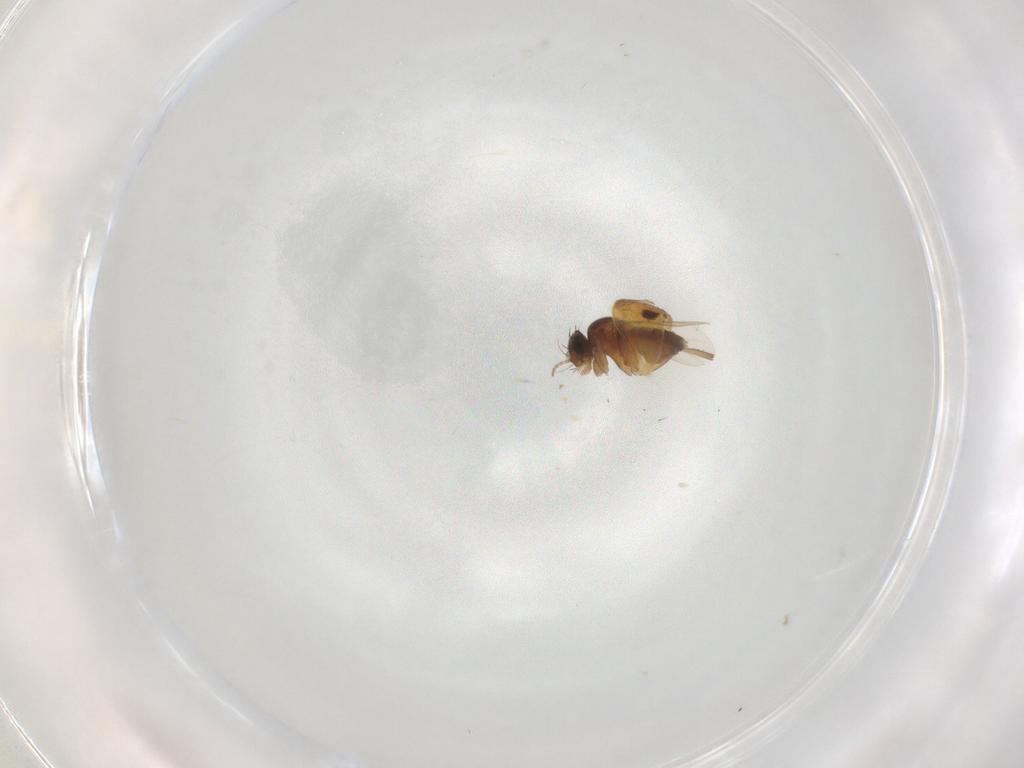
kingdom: Animalia
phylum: Arthropoda
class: Insecta
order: Diptera
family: Phoridae
